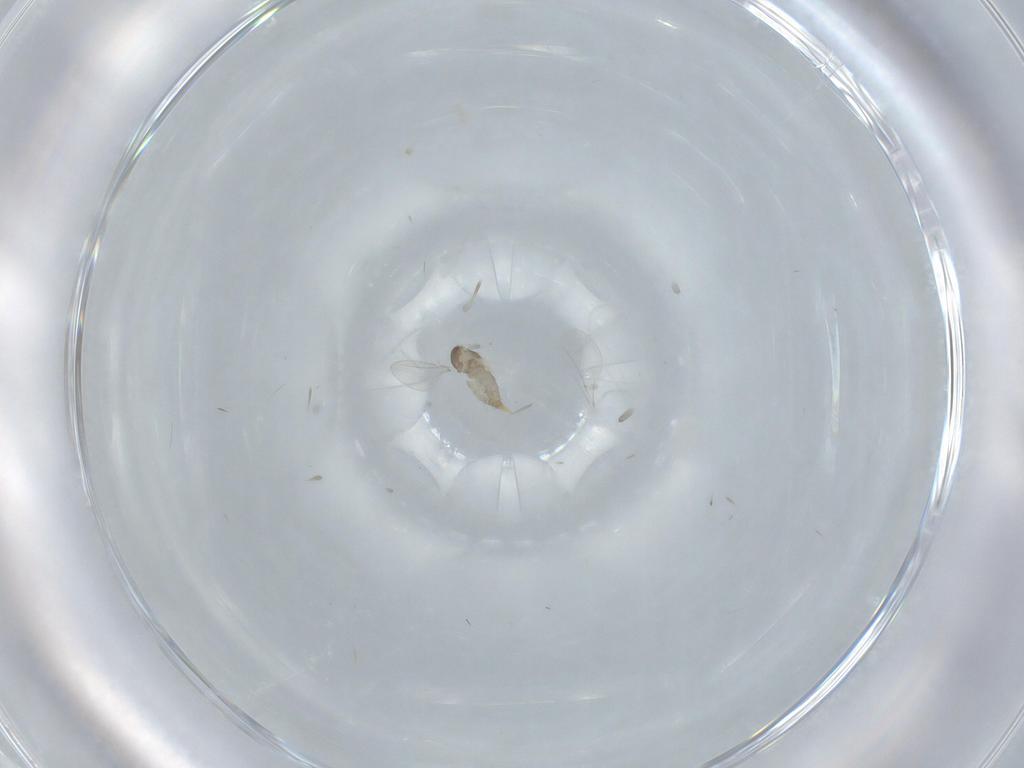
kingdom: Animalia
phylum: Arthropoda
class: Insecta
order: Diptera
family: Cecidomyiidae
